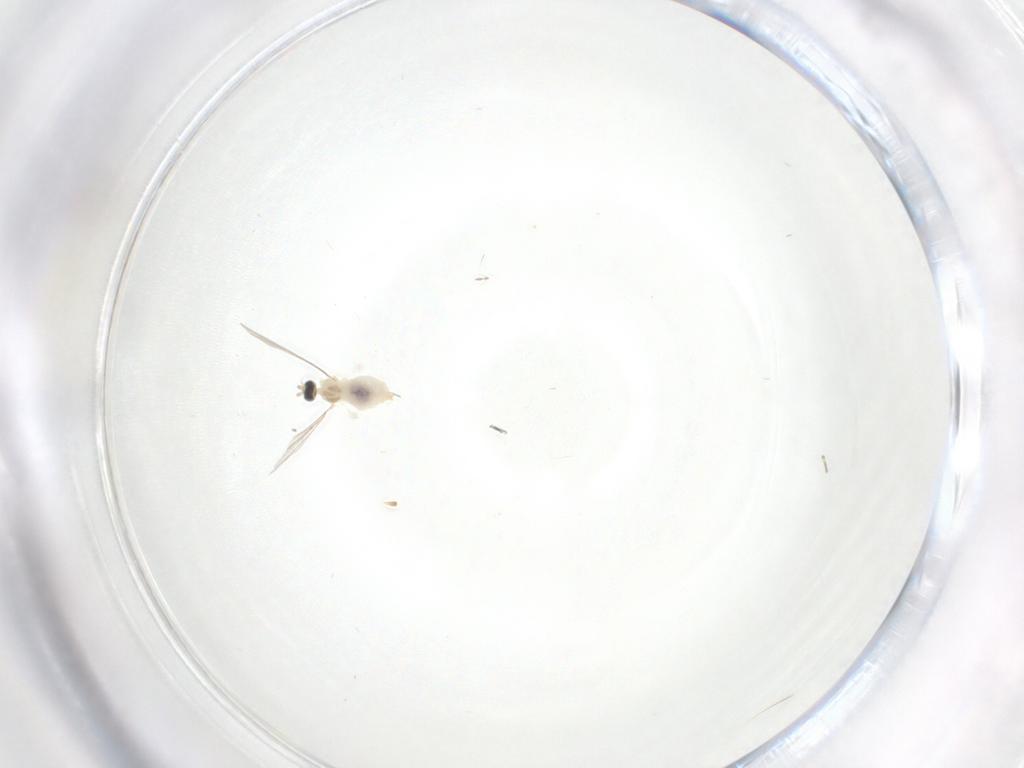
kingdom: Animalia
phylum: Arthropoda
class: Insecta
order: Diptera
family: Cecidomyiidae
